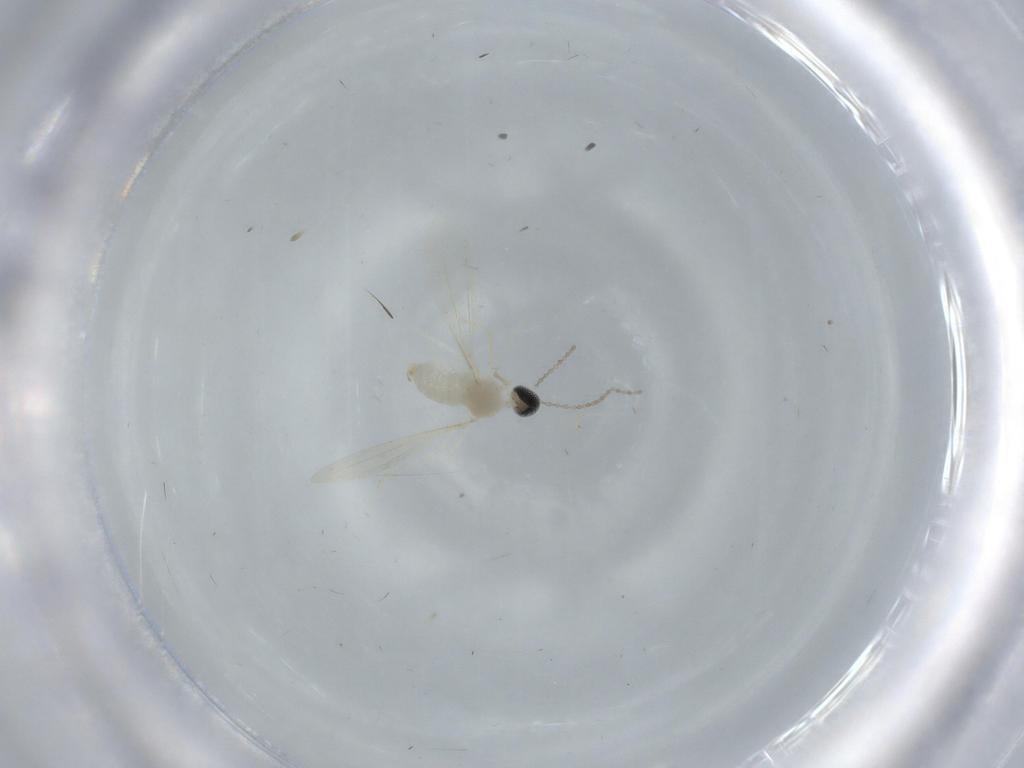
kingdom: Animalia
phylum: Arthropoda
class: Insecta
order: Diptera
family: Tabanidae
